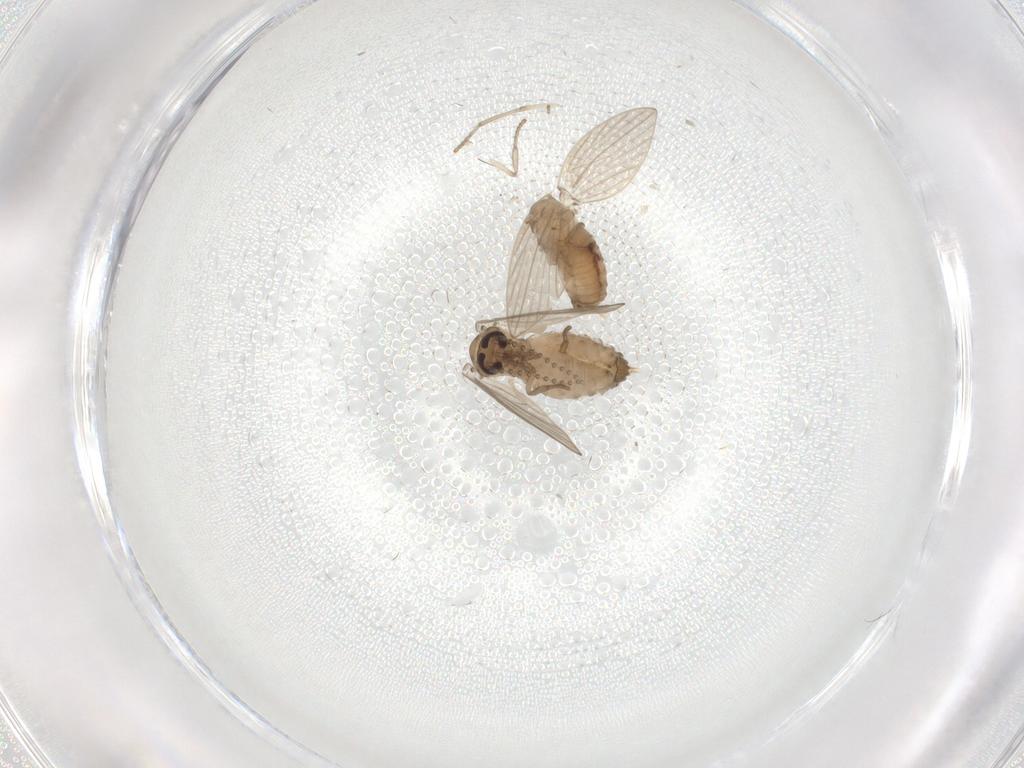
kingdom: Animalia
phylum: Arthropoda
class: Insecta
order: Diptera
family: Psychodidae
